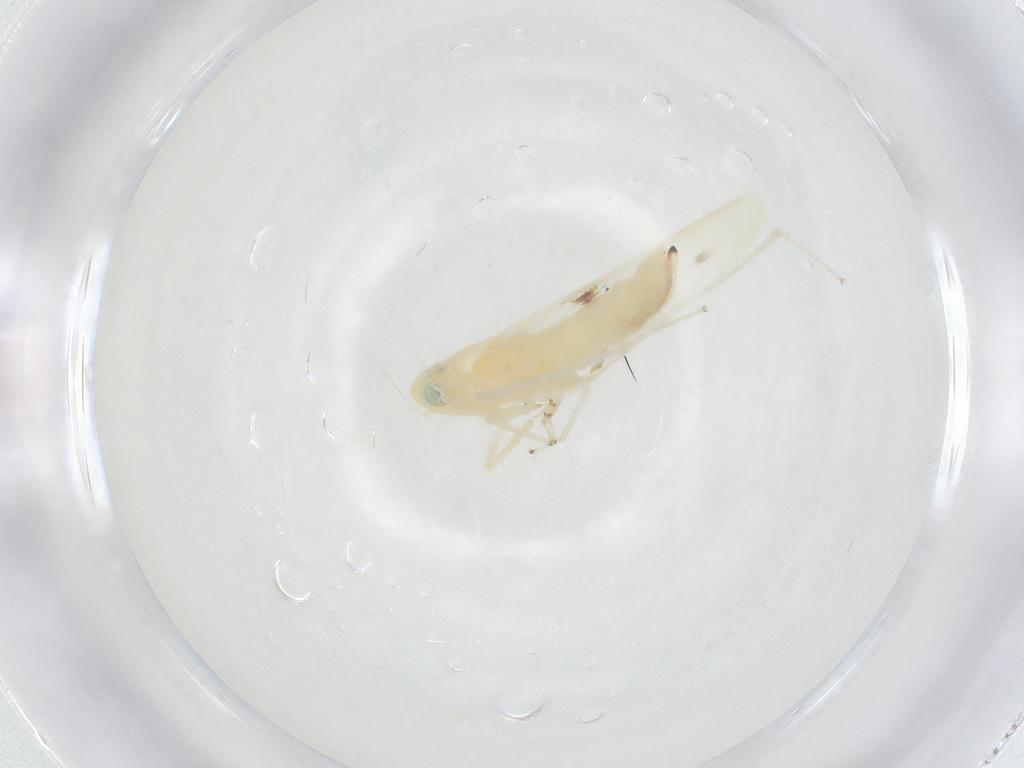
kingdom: Animalia
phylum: Arthropoda
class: Insecta
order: Hemiptera
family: Cicadellidae
